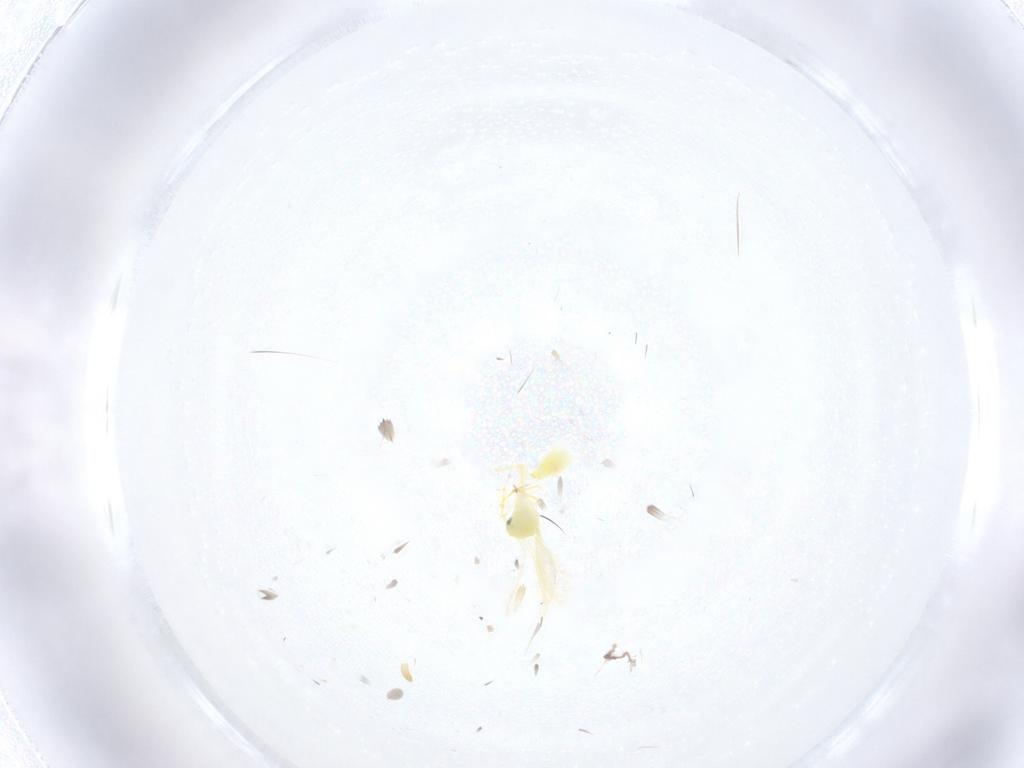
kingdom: Animalia
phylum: Arthropoda
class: Insecta
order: Hemiptera
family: Aleyrodidae
